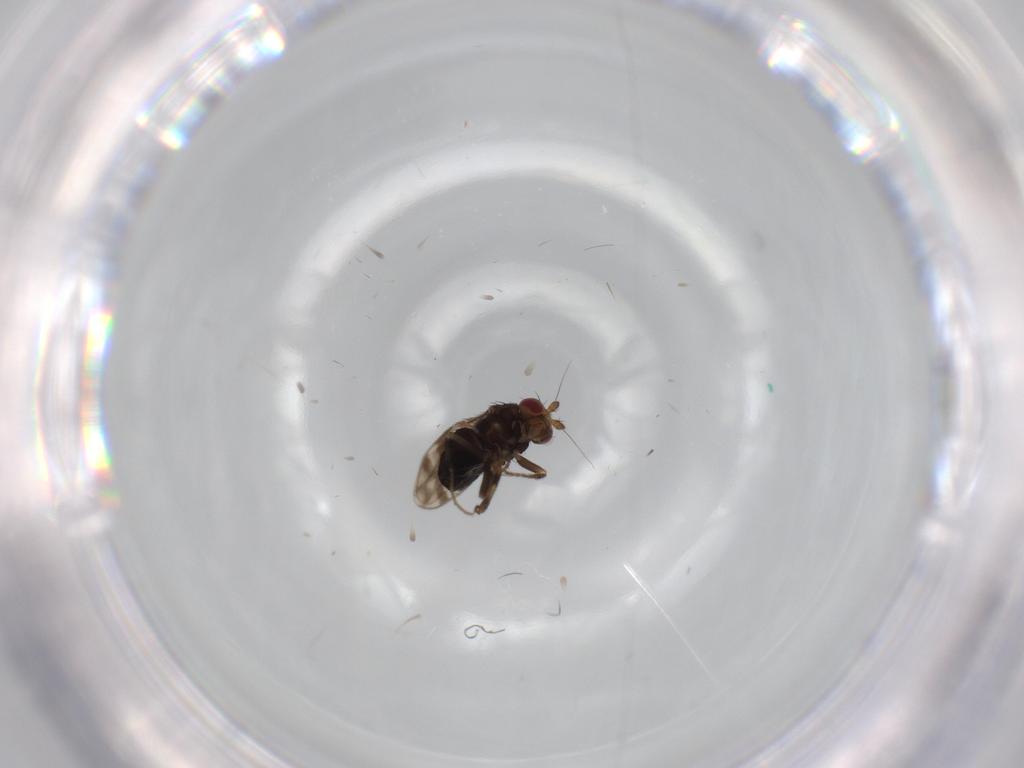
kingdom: Animalia
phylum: Arthropoda
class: Insecta
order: Diptera
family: Sphaeroceridae
